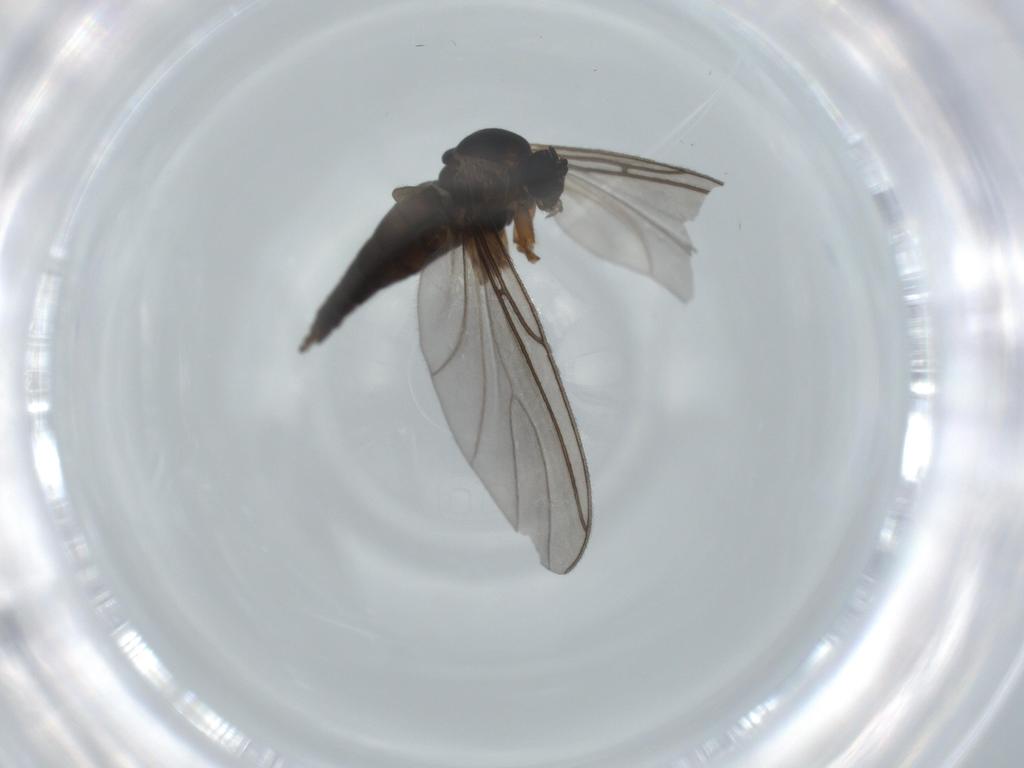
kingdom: Animalia
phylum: Arthropoda
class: Insecta
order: Diptera
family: Sciaridae
